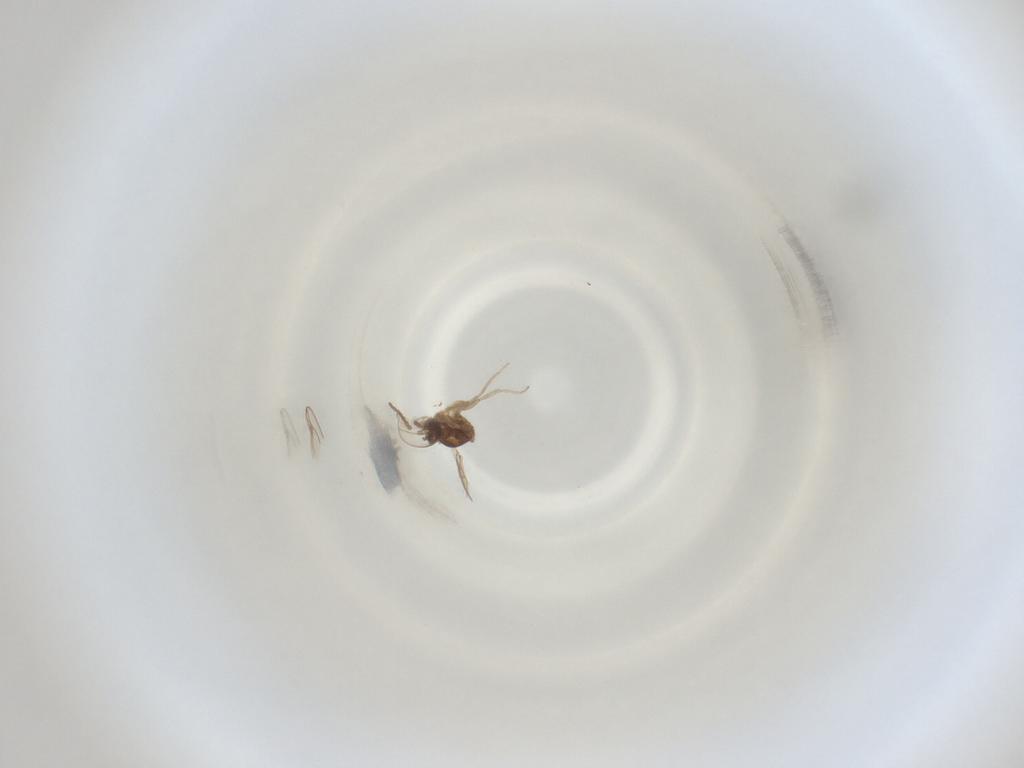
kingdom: Animalia
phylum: Arthropoda
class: Insecta
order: Diptera
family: Cecidomyiidae
